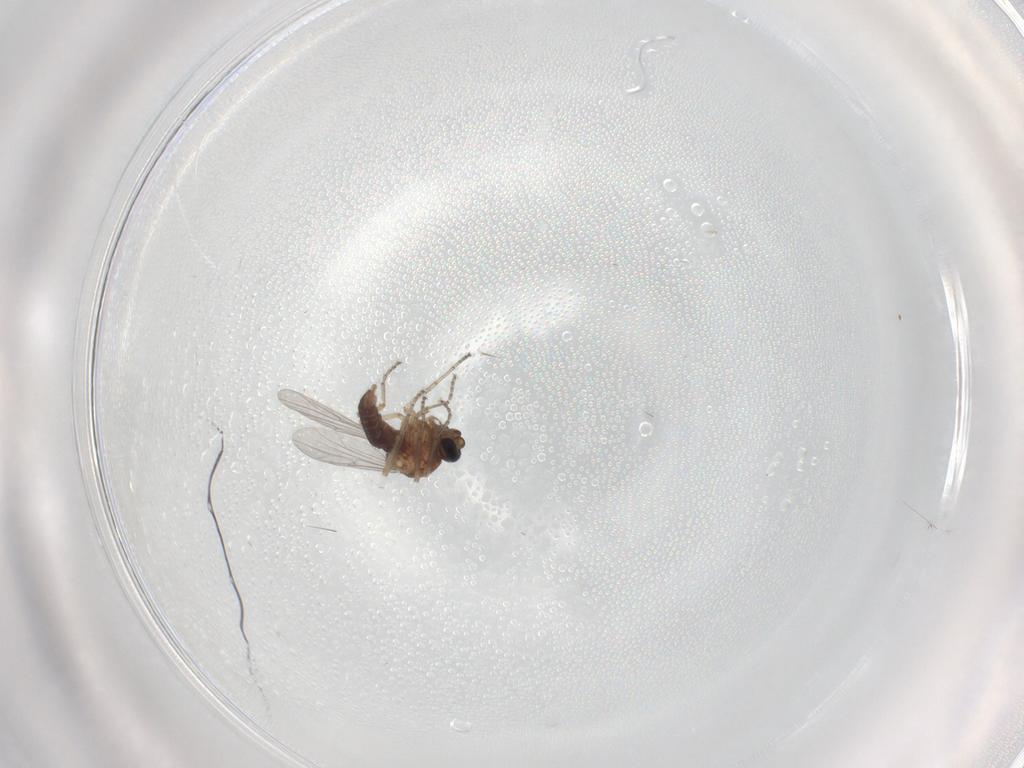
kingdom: Animalia
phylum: Arthropoda
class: Insecta
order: Diptera
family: Ceratopogonidae
